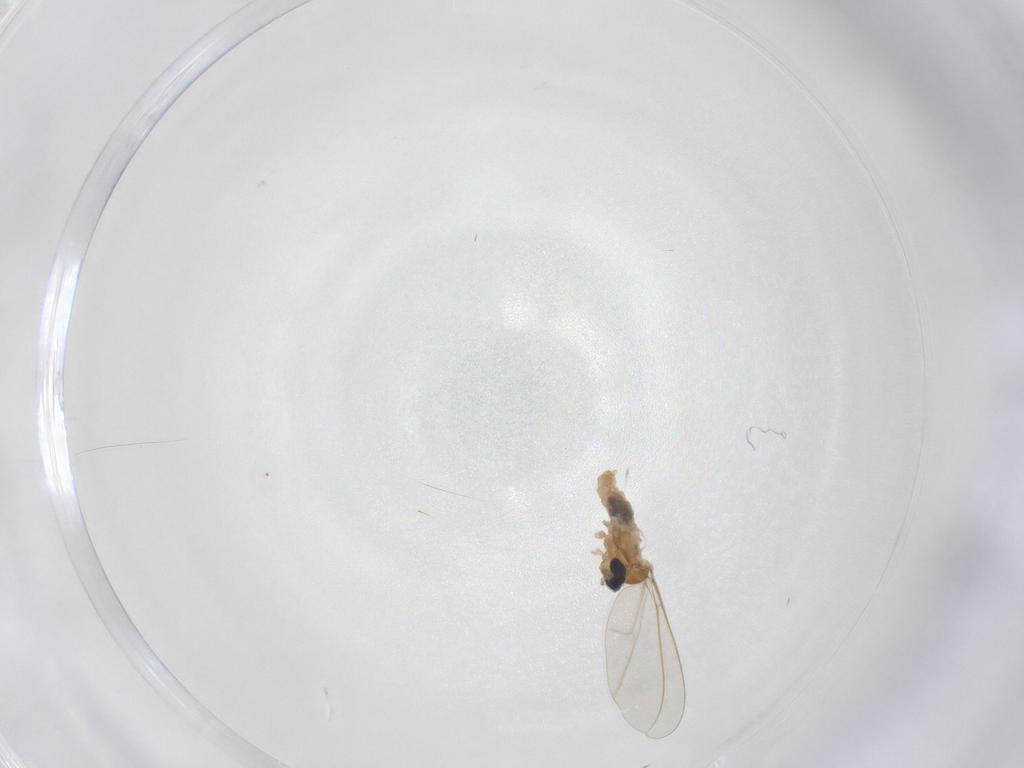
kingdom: Animalia
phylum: Arthropoda
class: Insecta
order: Diptera
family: Cecidomyiidae
